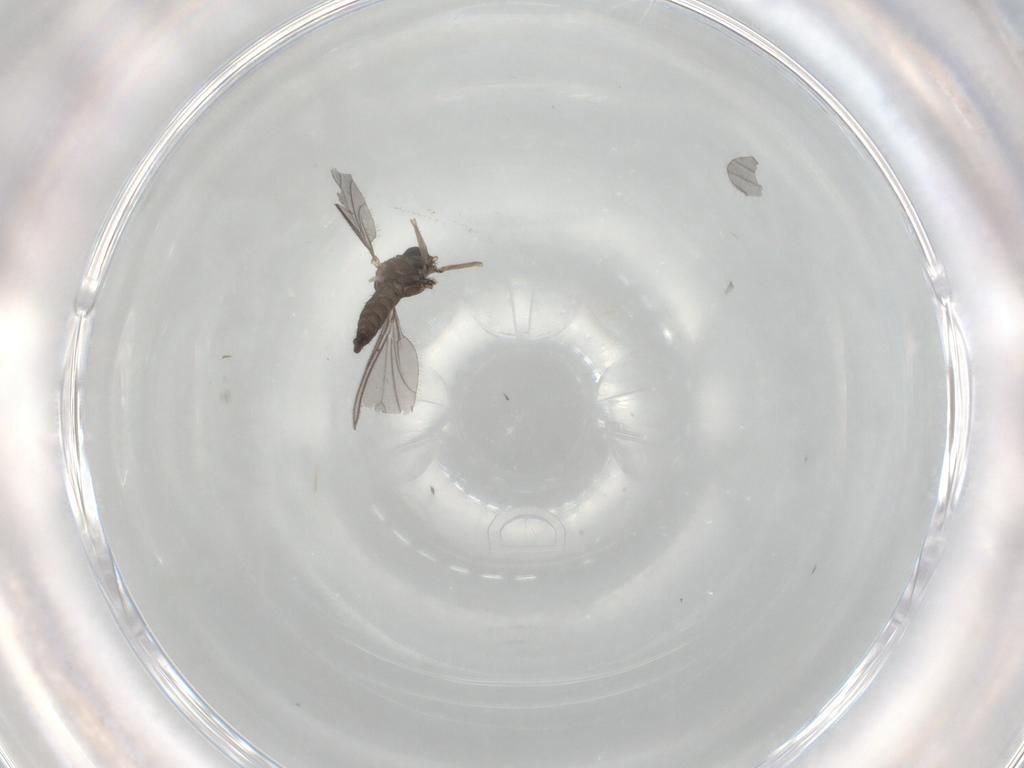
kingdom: Animalia
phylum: Arthropoda
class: Insecta
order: Diptera
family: Sciaridae
